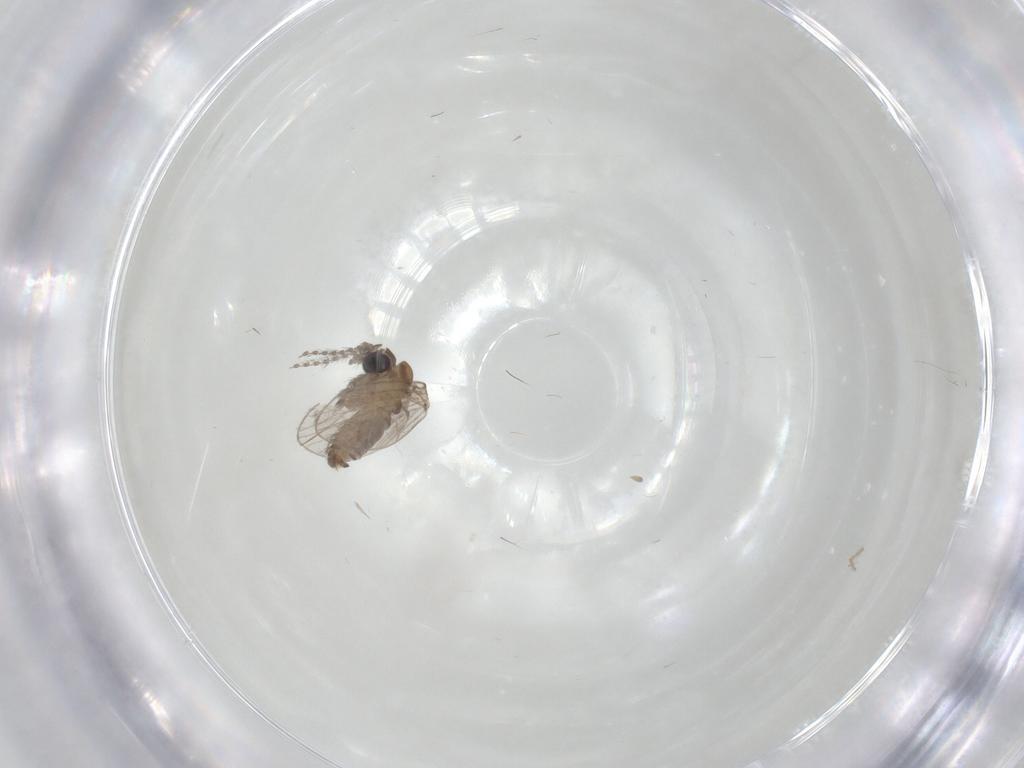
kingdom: Animalia
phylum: Arthropoda
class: Insecta
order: Diptera
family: Chironomidae
